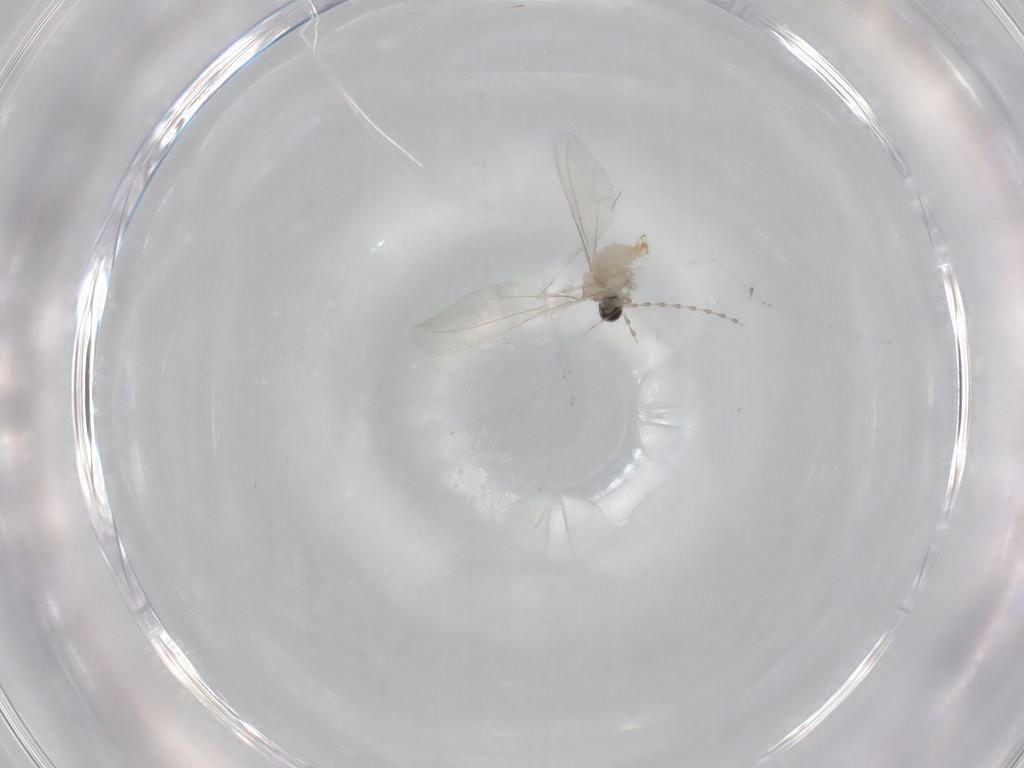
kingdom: Animalia
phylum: Arthropoda
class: Insecta
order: Diptera
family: Cecidomyiidae
